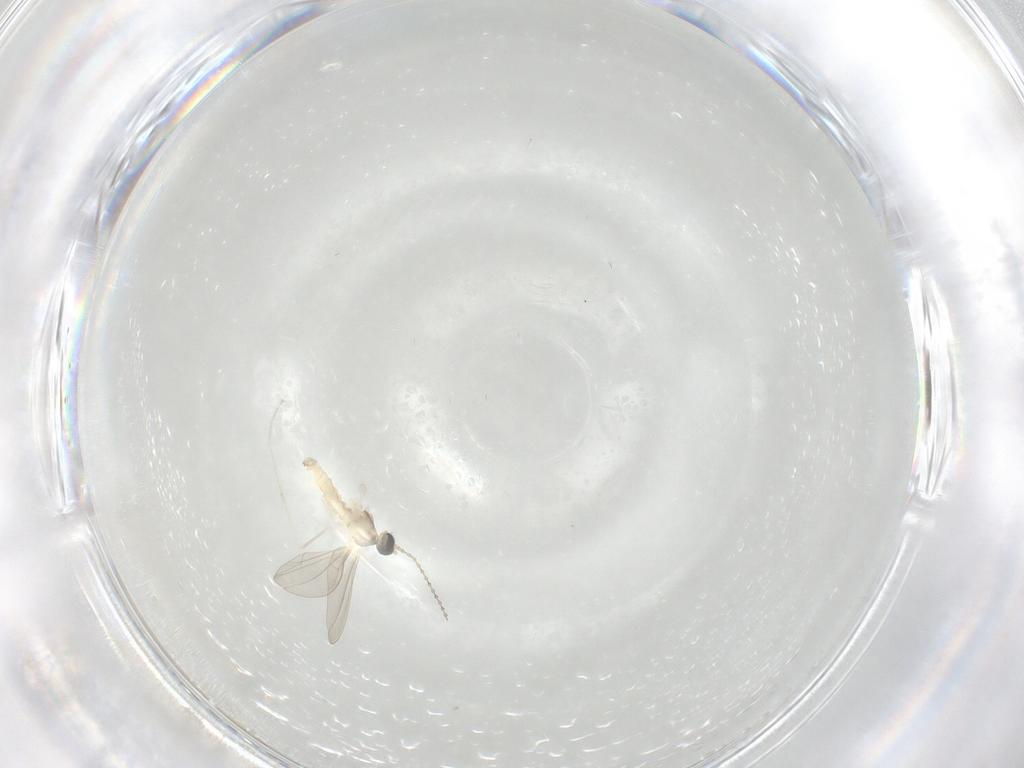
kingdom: Animalia
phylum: Arthropoda
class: Insecta
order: Diptera
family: Cecidomyiidae
